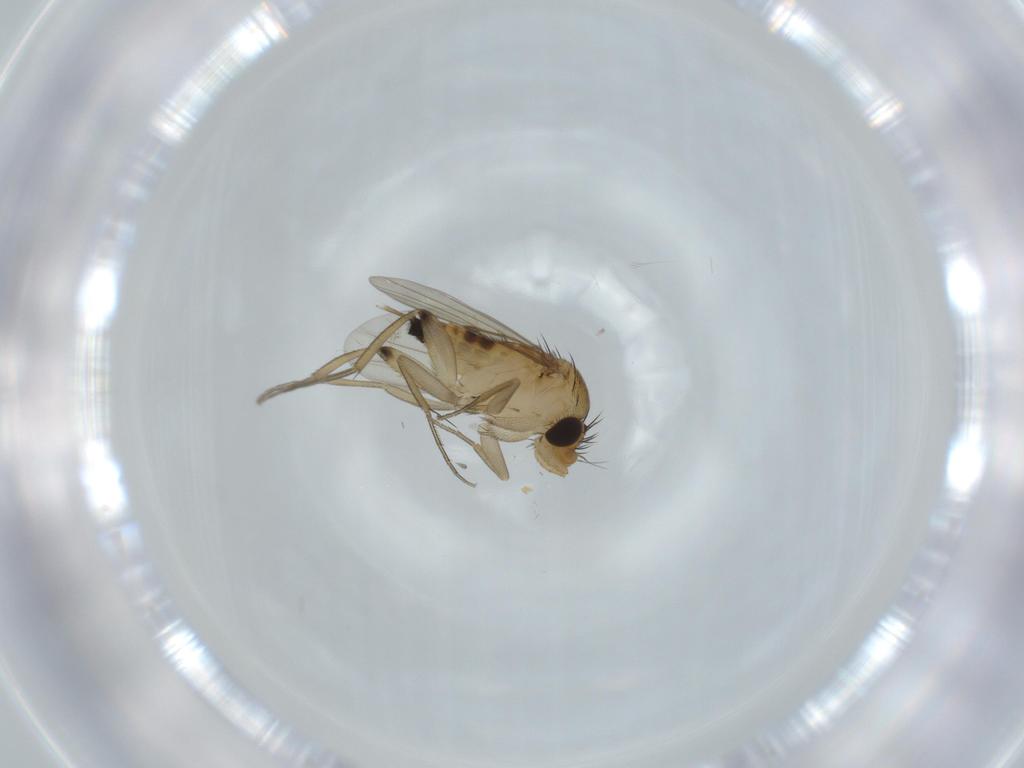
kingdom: Animalia
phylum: Arthropoda
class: Insecta
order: Diptera
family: Phoridae
